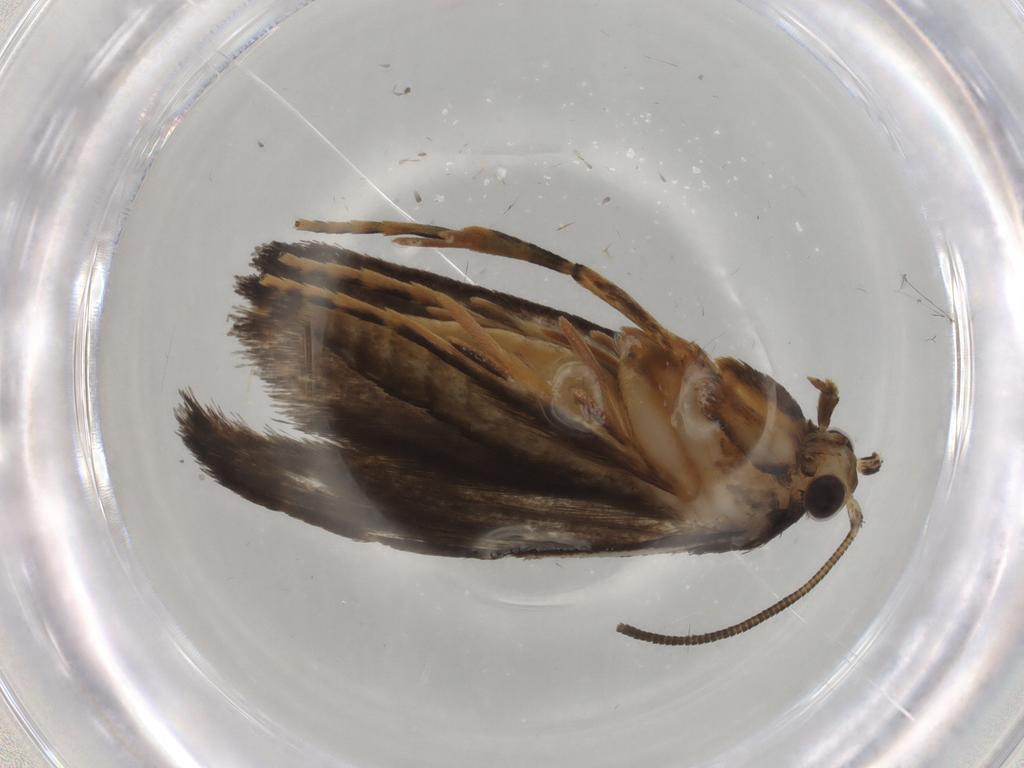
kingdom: Animalia
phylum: Arthropoda
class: Insecta
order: Lepidoptera
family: Tineidae
